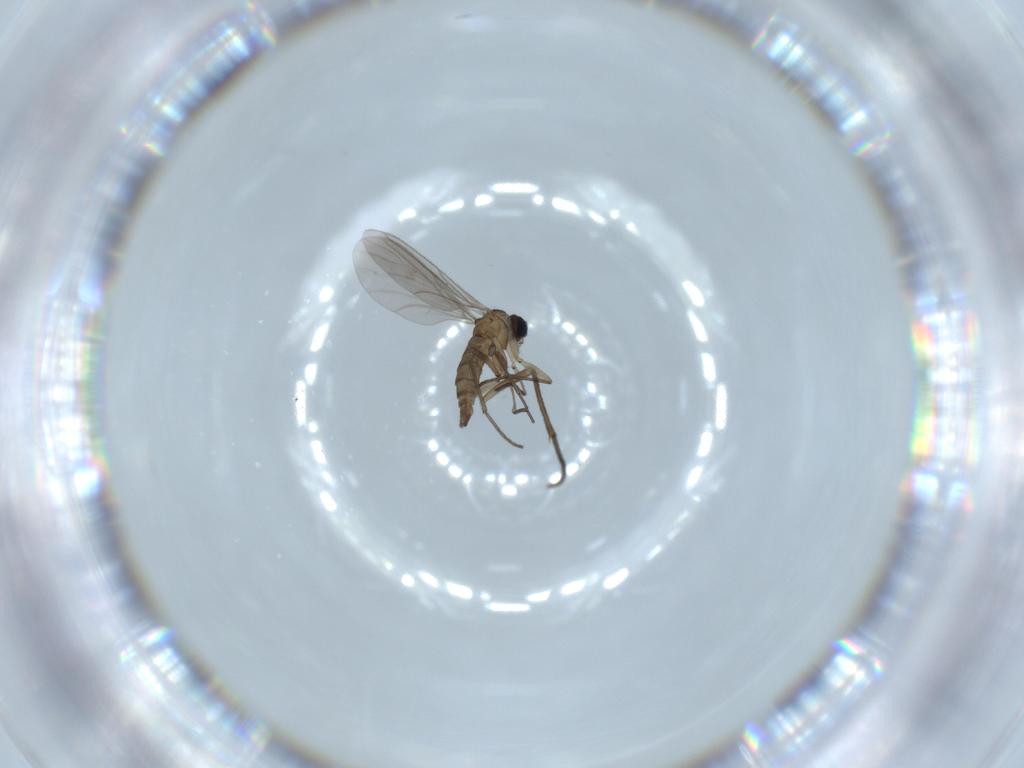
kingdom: Animalia
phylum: Arthropoda
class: Insecta
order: Diptera
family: Sciaridae
